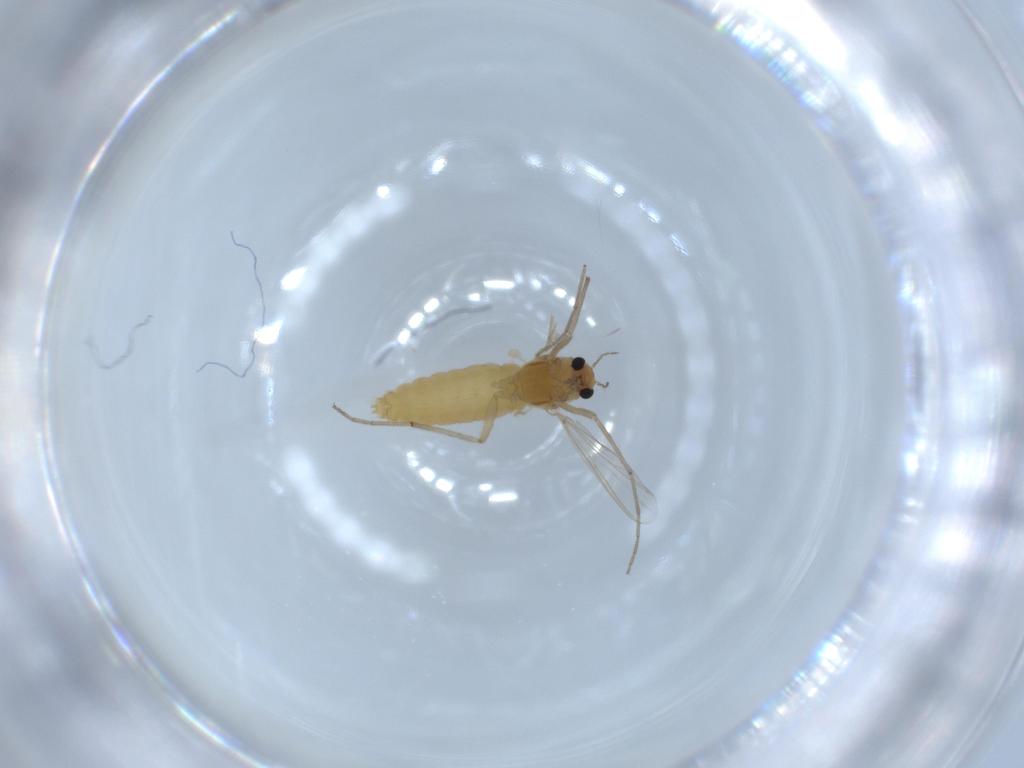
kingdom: Animalia
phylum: Arthropoda
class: Insecta
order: Diptera
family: Chironomidae
